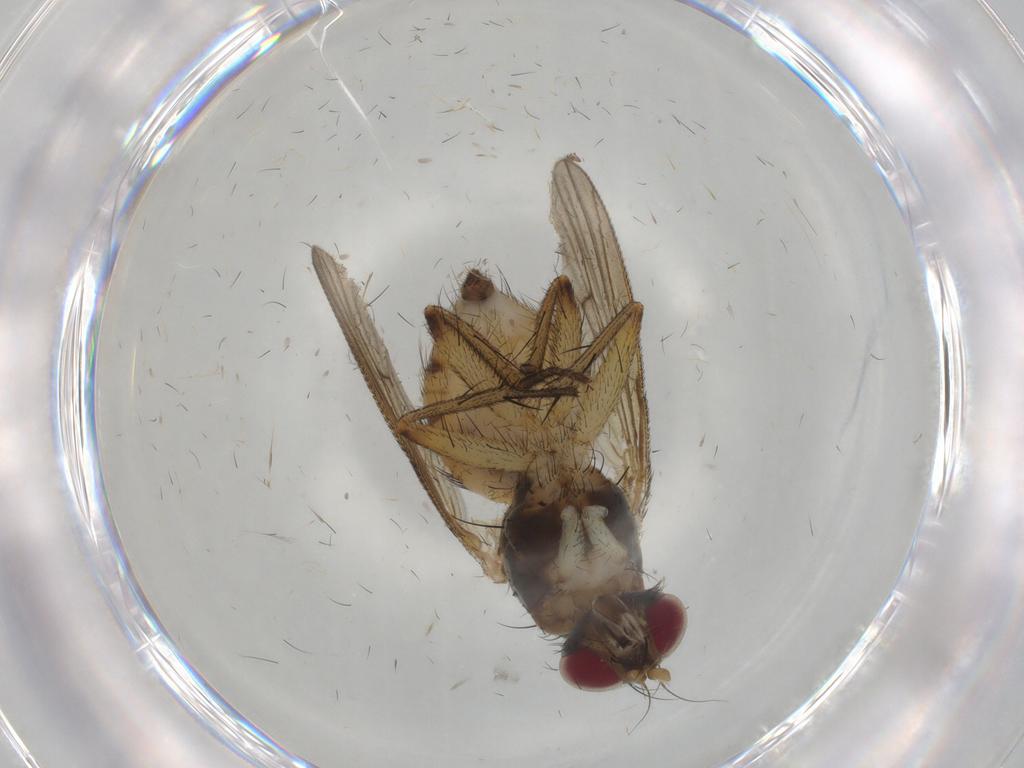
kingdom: Animalia
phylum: Arthropoda
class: Insecta
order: Diptera
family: Muscidae
